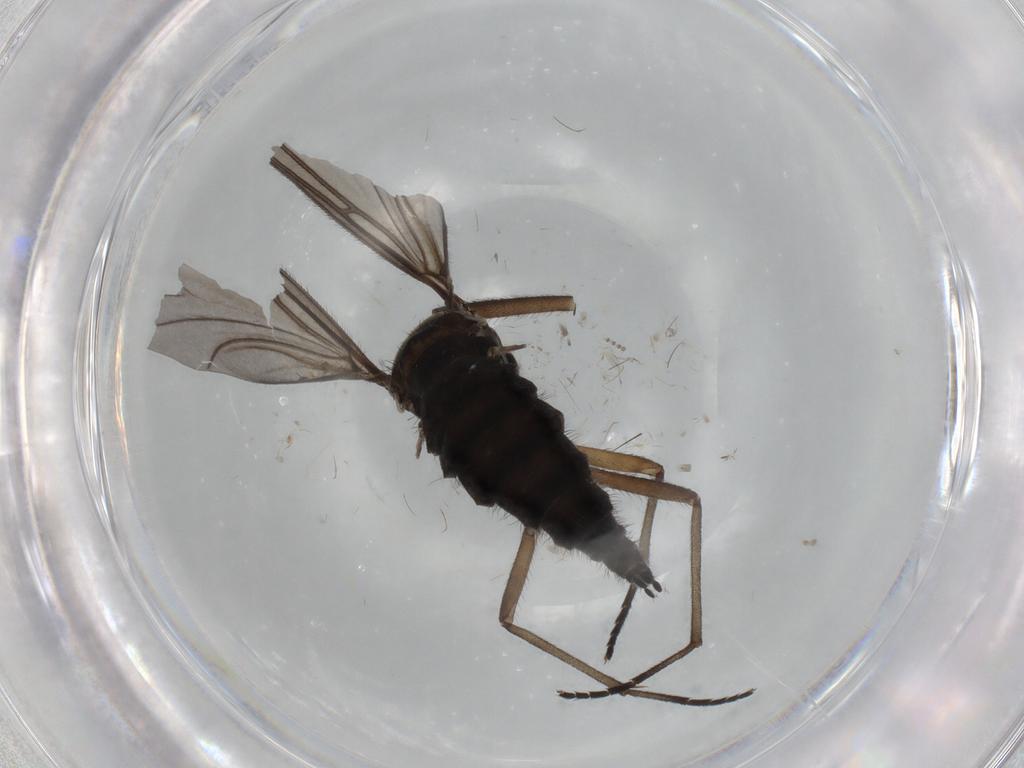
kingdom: Animalia
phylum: Arthropoda
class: Insecta
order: Diptera
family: Sciaridae
